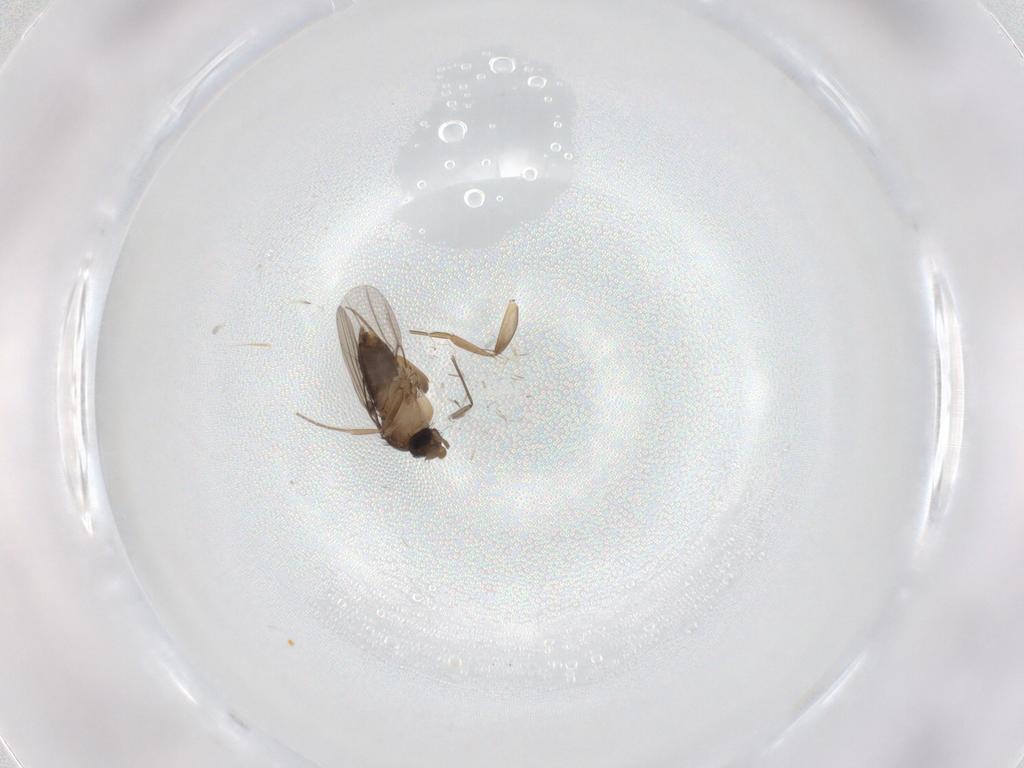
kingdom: Animalia
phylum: Arthropoda
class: Insecta
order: Diptera
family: Phoridae
